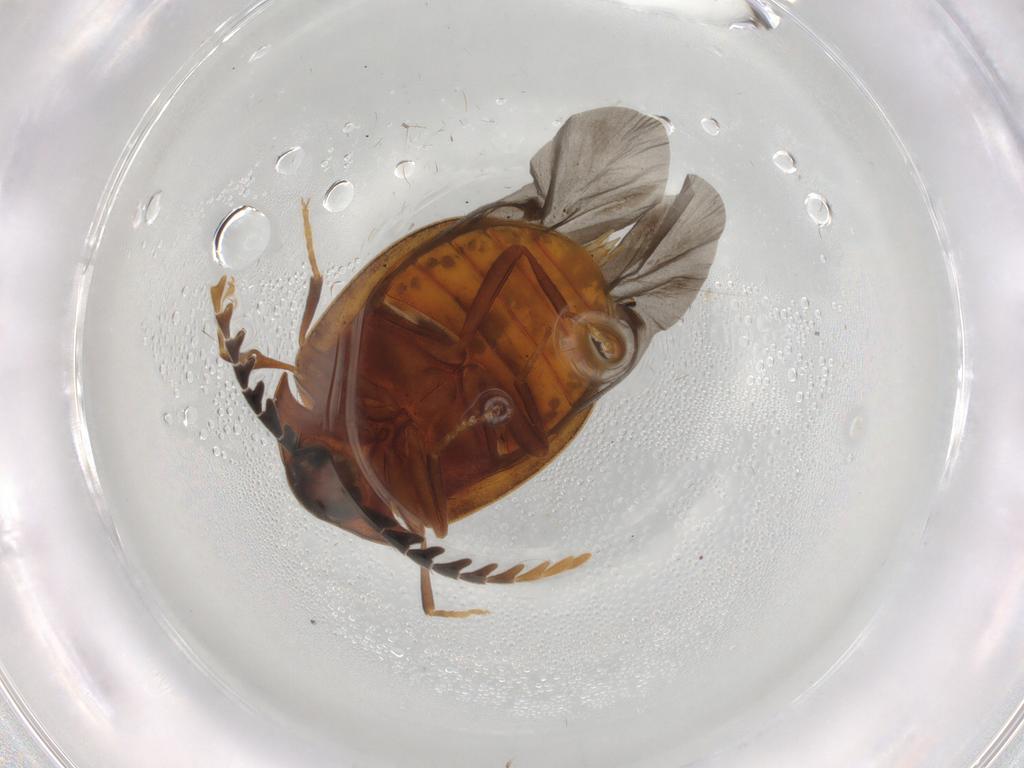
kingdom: Animalia
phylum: Arthropoda
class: Insecta
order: Coleoptera
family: Psephenidae
